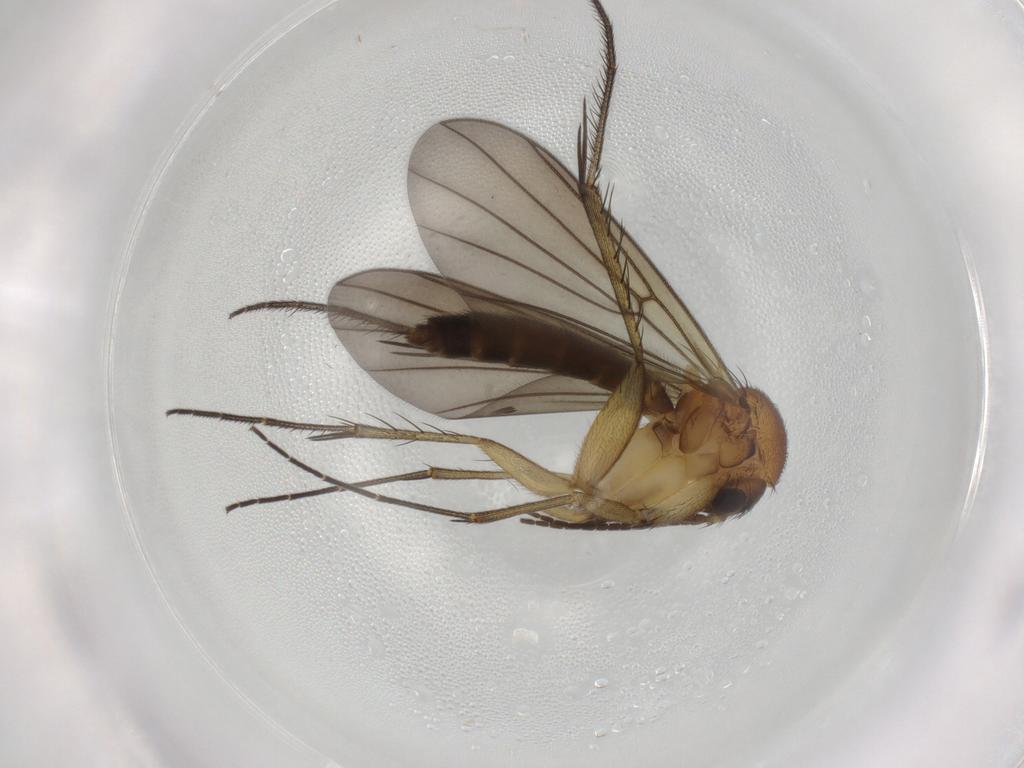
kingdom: Animalia
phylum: Arthropoda
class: Insecta
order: Diptera
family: Mycetophilidae
